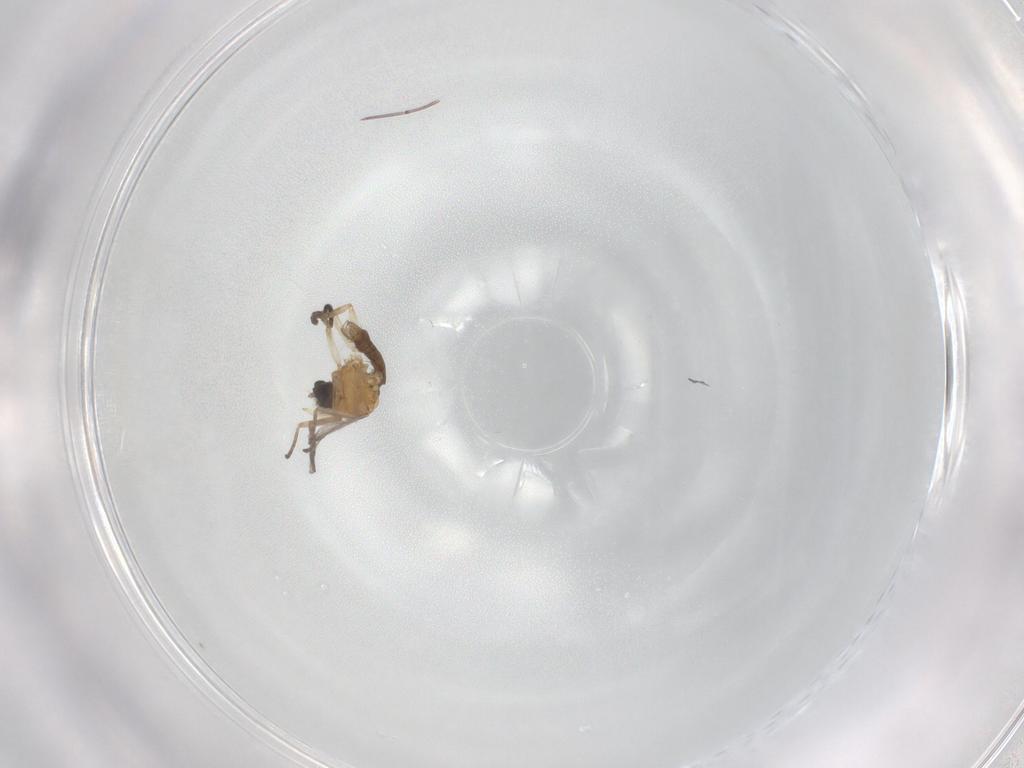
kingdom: Animalia
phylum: Arthropoda
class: Insecta
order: Diptera
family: Ceratopogonidae
